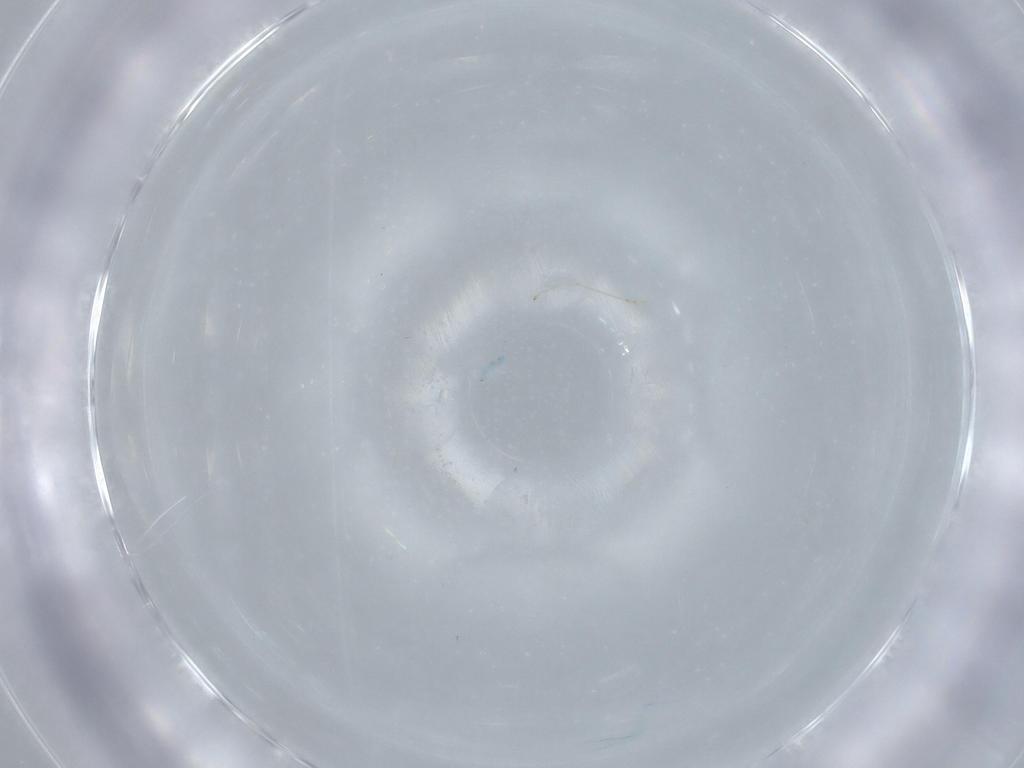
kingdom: Animalia
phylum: Arthropoda
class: Insecta
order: Diptera
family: Cecidomyiidae
